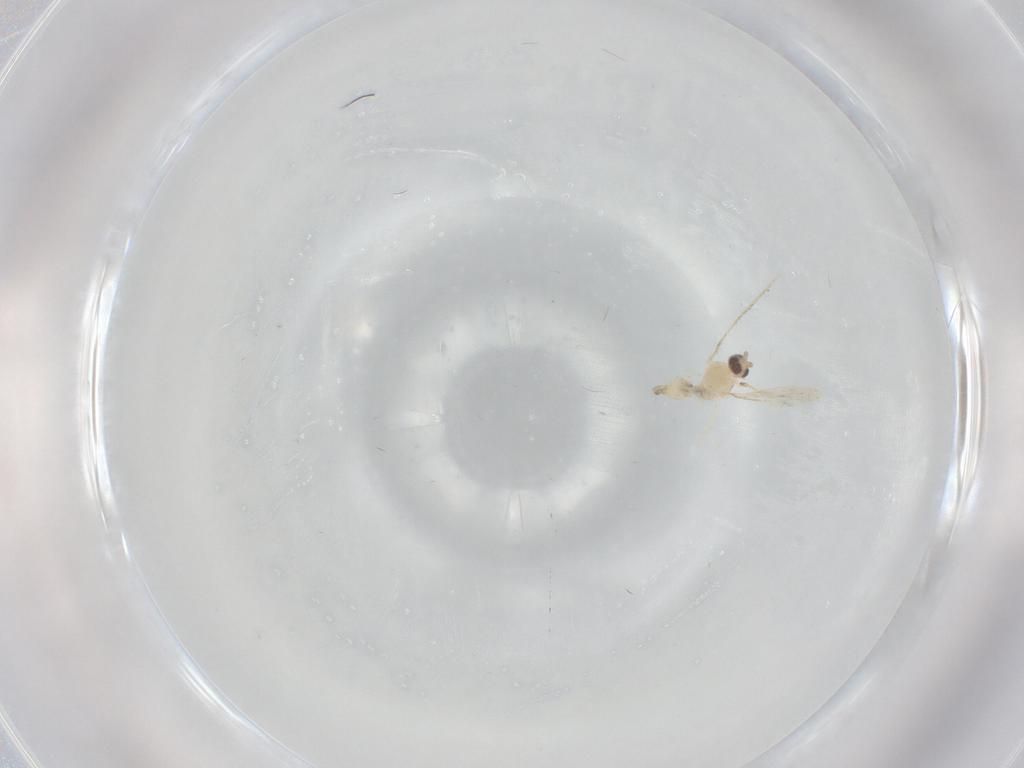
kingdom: Animalia
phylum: Arthropoda
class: Insecta
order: Diptera
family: Cecidomyiidae
